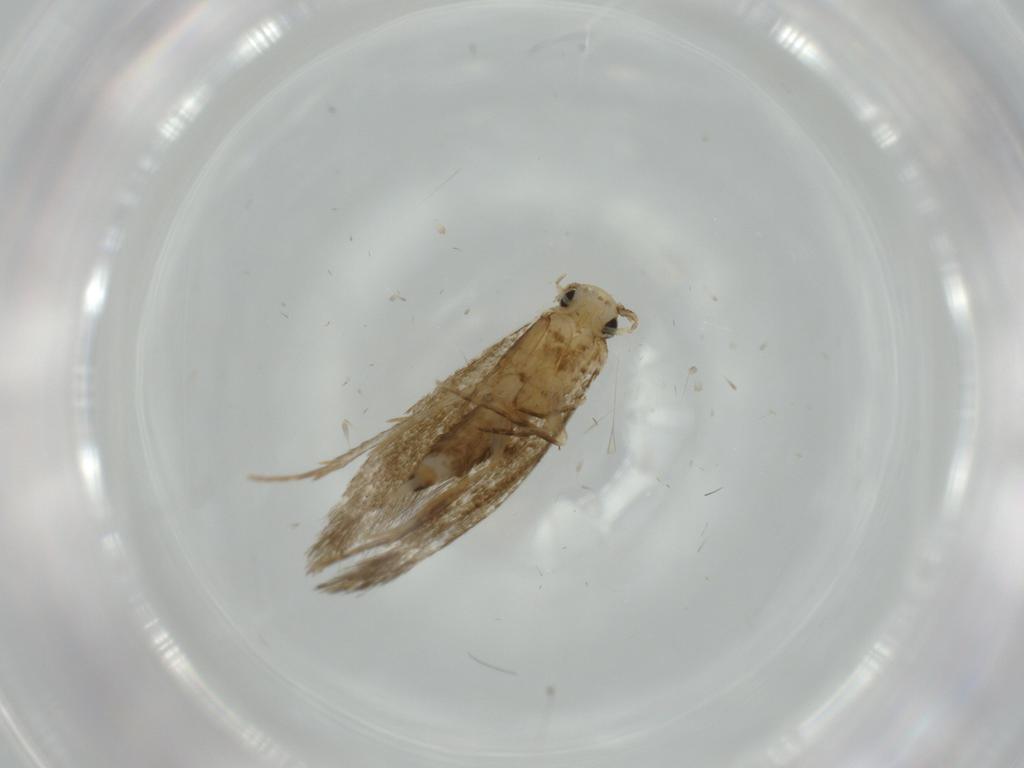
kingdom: Animalia
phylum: Arthropoda
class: Insecta
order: Lepidoptera
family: Tineidae
